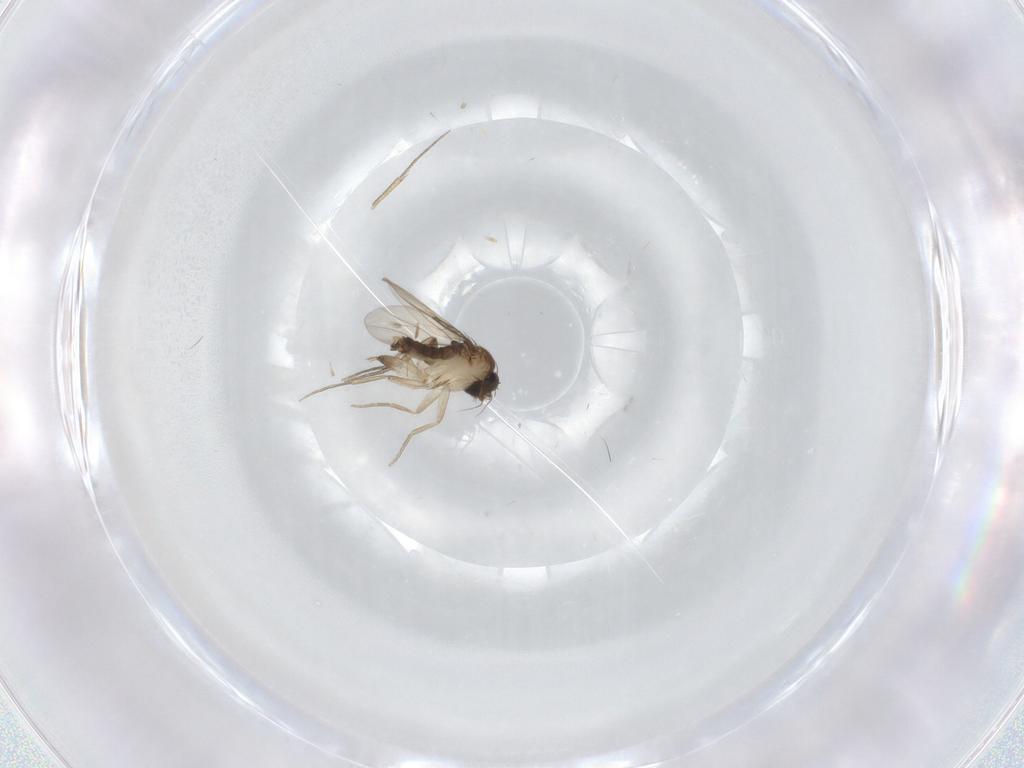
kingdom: Animalia
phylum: Arthropoda
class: Insecta
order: Diptera
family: Phoridae
